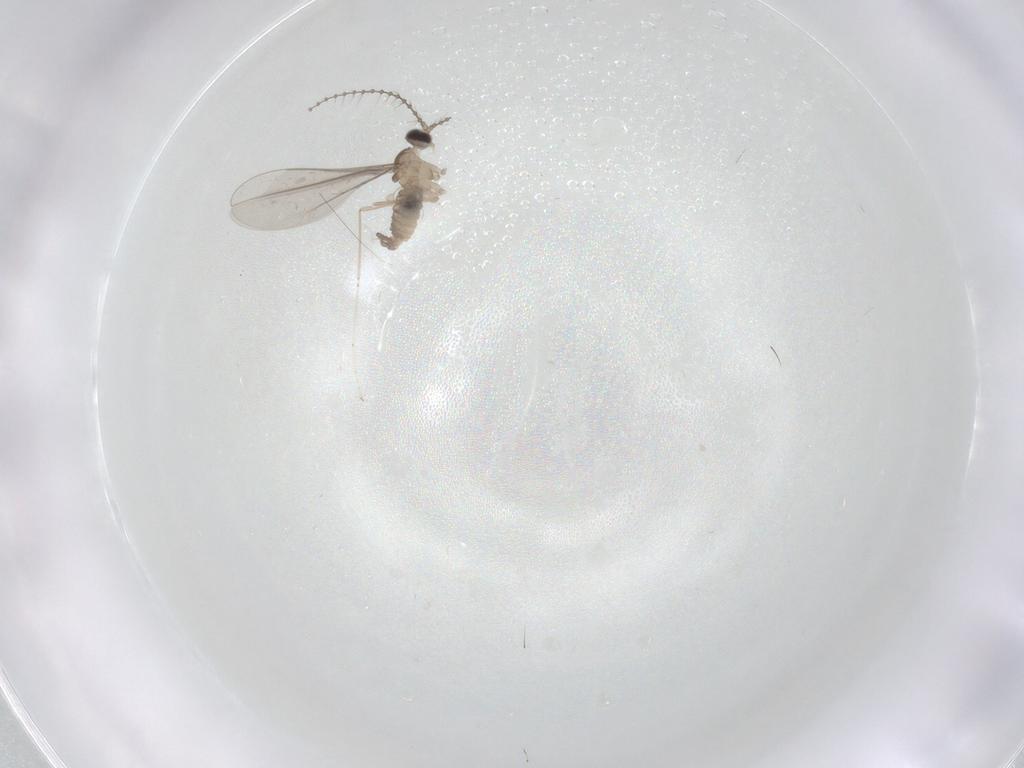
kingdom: Animalia
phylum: Arthropoda
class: Insecta
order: Diptera
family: Cecidomyiidae
